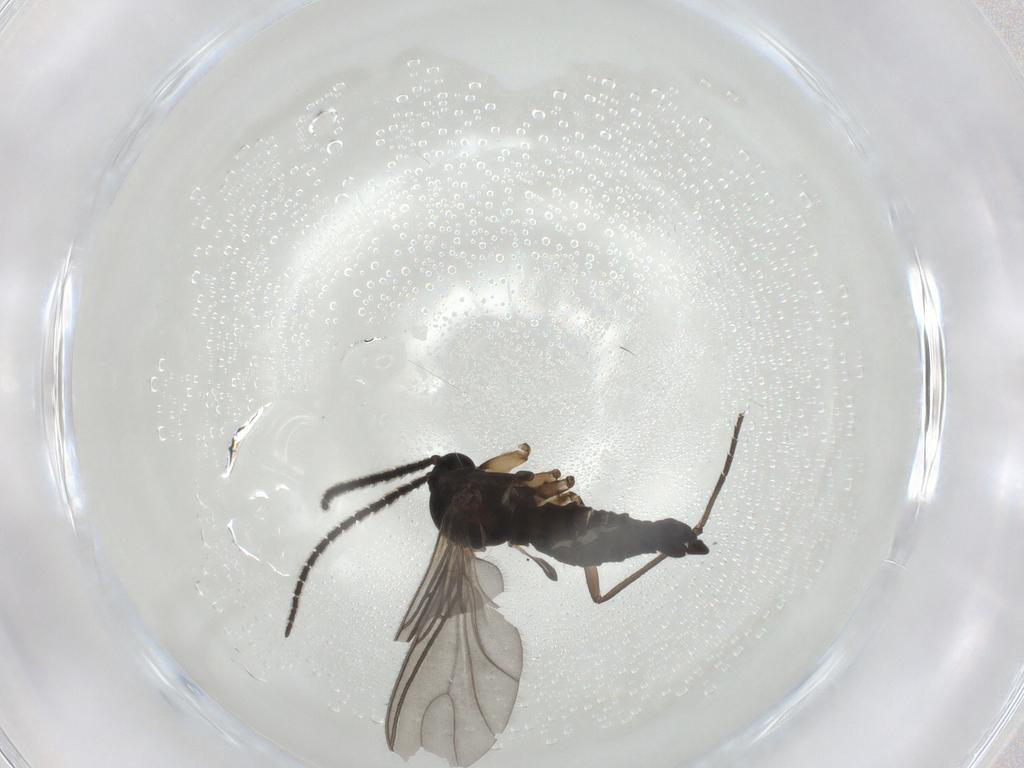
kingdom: Animalia
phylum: Arthropoda
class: Insecta
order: Diptera
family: Sciaridae
